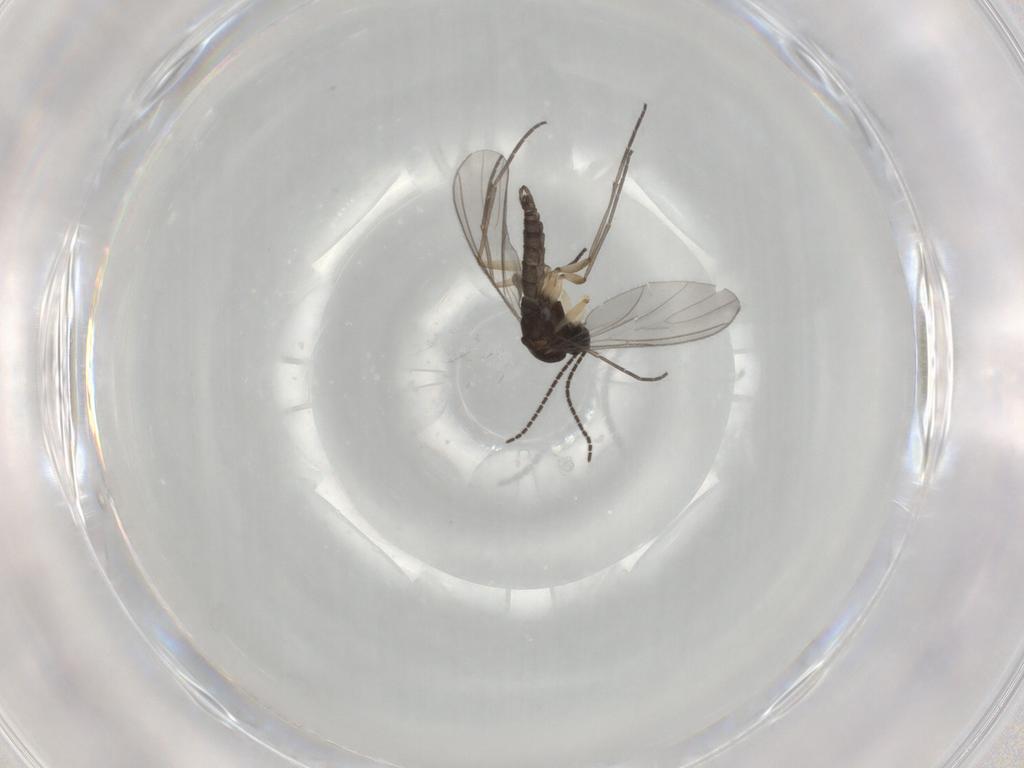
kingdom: Animalia
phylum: Arthropoda
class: Insecta
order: Diptera
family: Sciaridae
